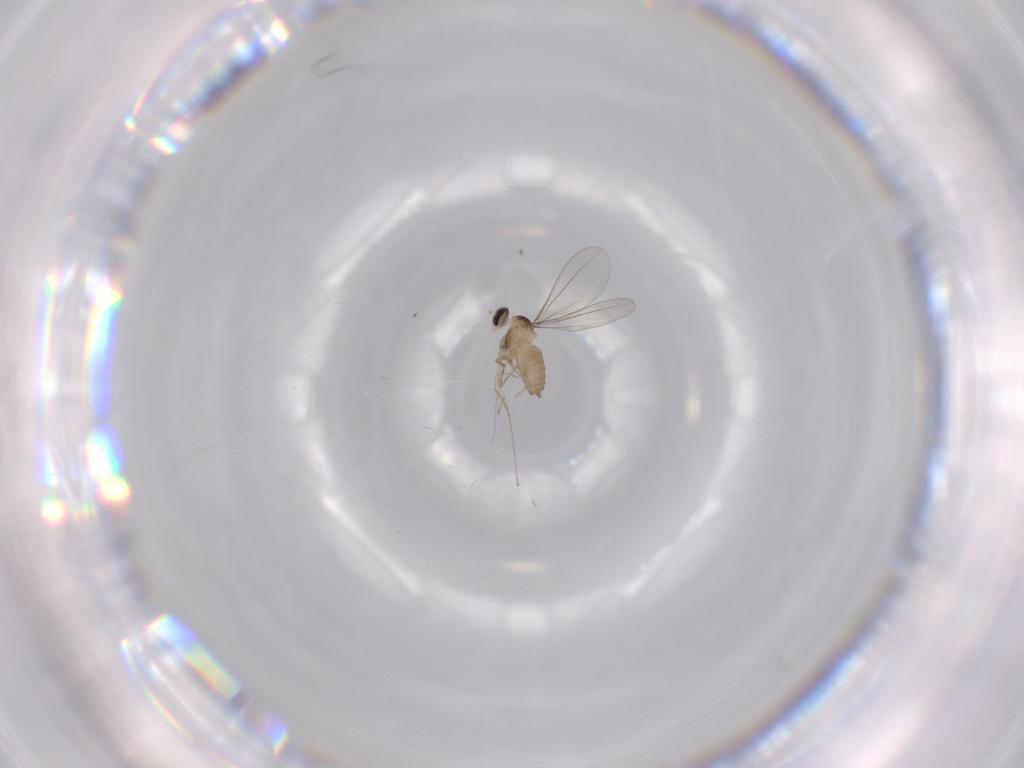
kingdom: Animalia
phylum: Arthropoda
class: Insecta
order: Diptera
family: Cecidomyiidae
